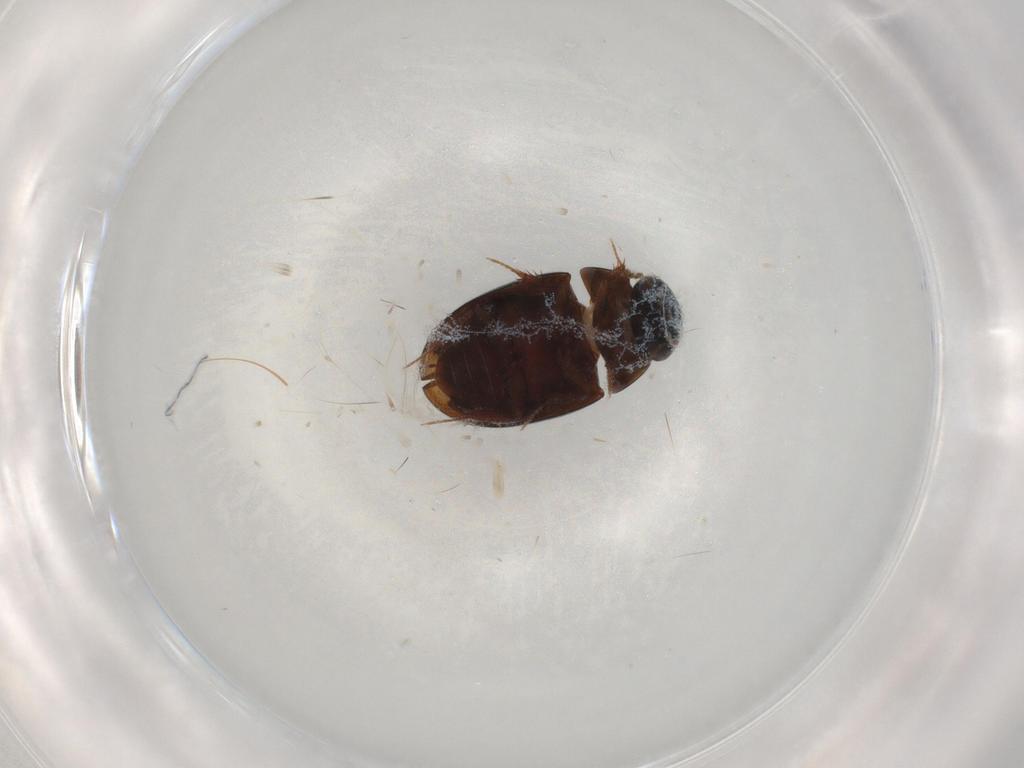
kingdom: Animalia
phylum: Arthropoda
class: Insecta
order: Coleoptera
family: Hydrophilidae
